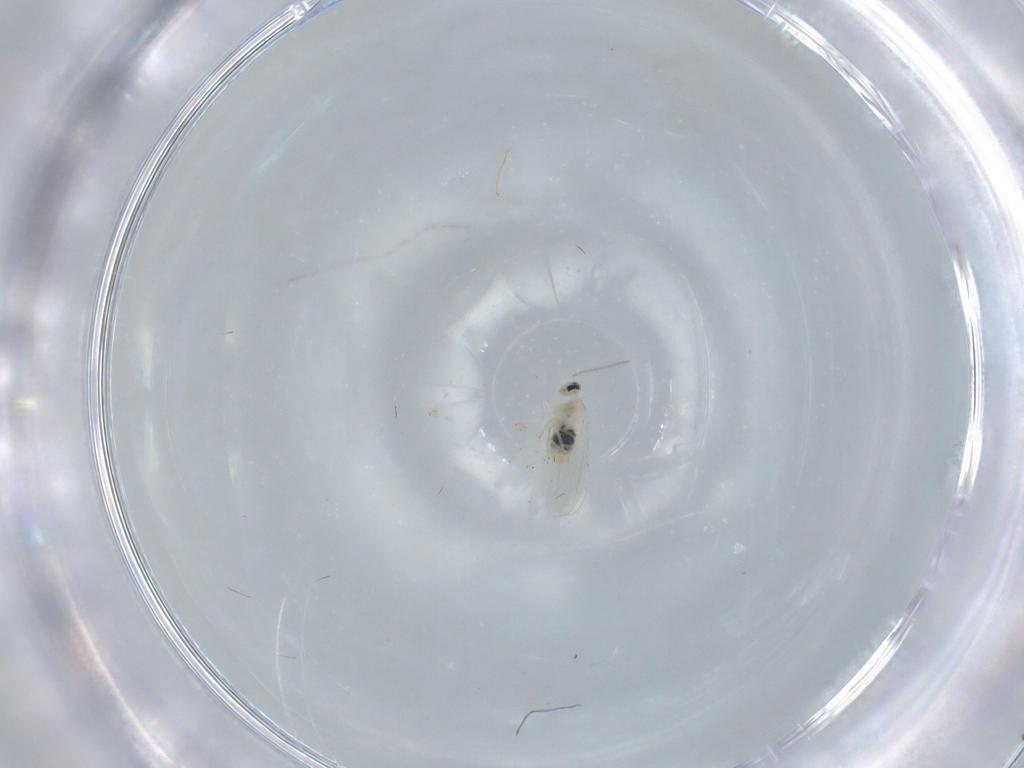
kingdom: Animalia
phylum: Arthropoda
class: Insecta
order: Diptera
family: Cecidomyiidae
